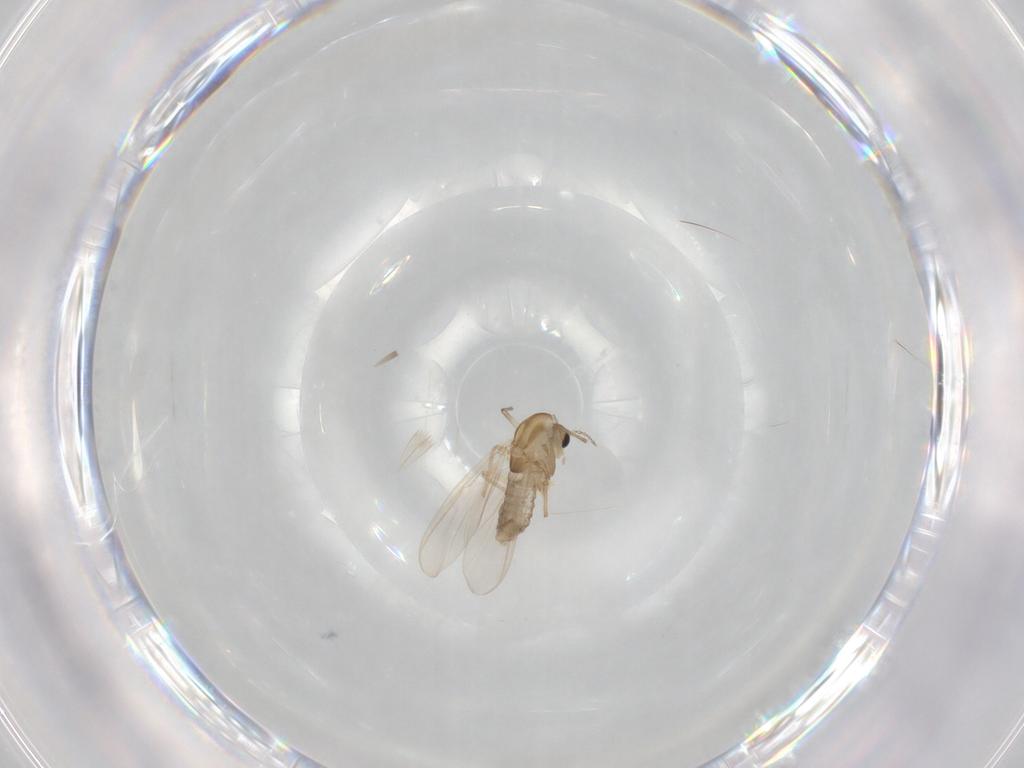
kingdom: Animalia
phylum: Arthropoda
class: Insecta
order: Diptera
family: Chironomidae
